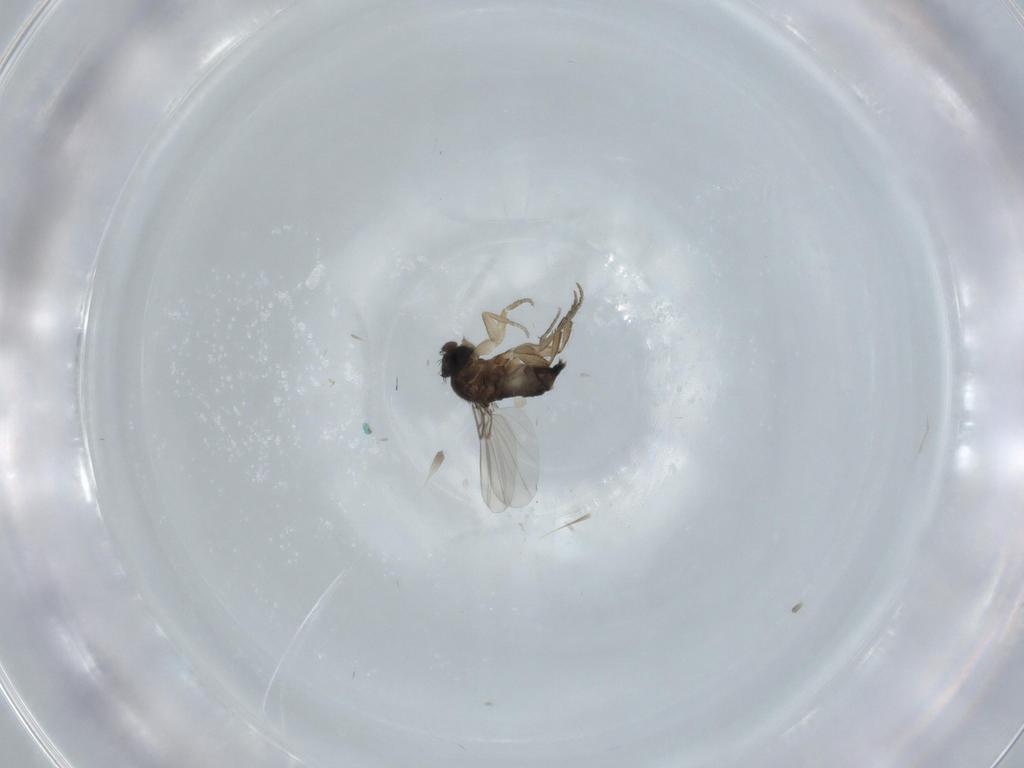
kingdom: Animalia
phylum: Arthropoda
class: Insecta
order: Diptera
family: Phoridae
